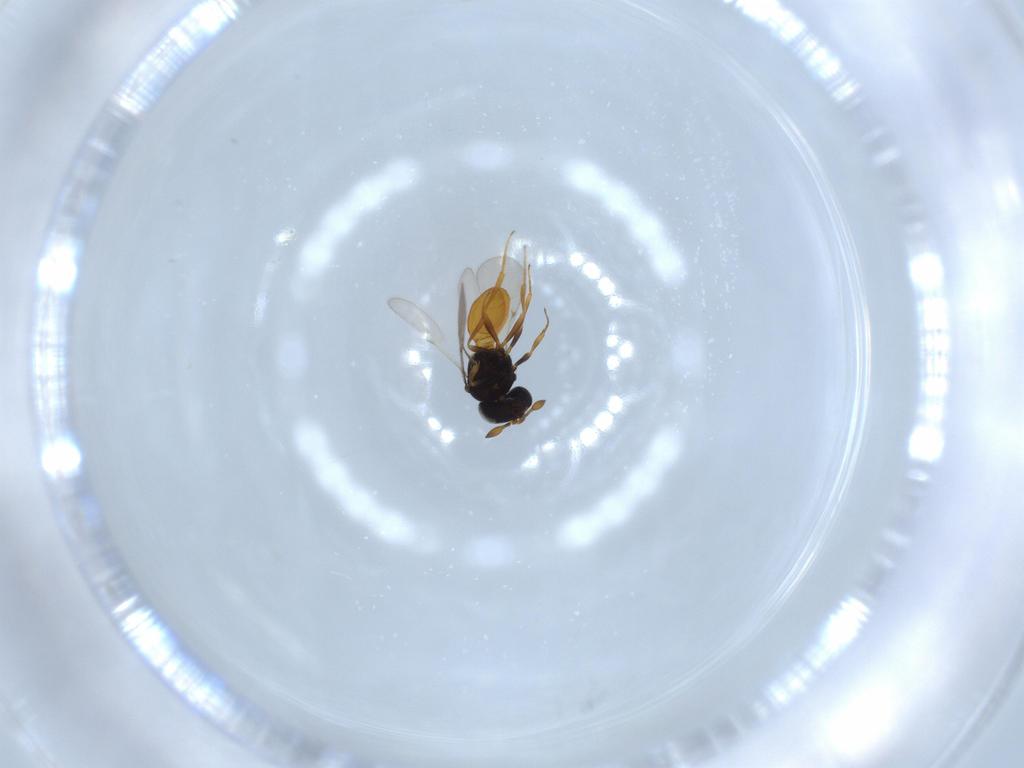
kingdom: Animalia
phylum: Arthropoda
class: Insecta
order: Hymenoptera
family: Scelionidae
